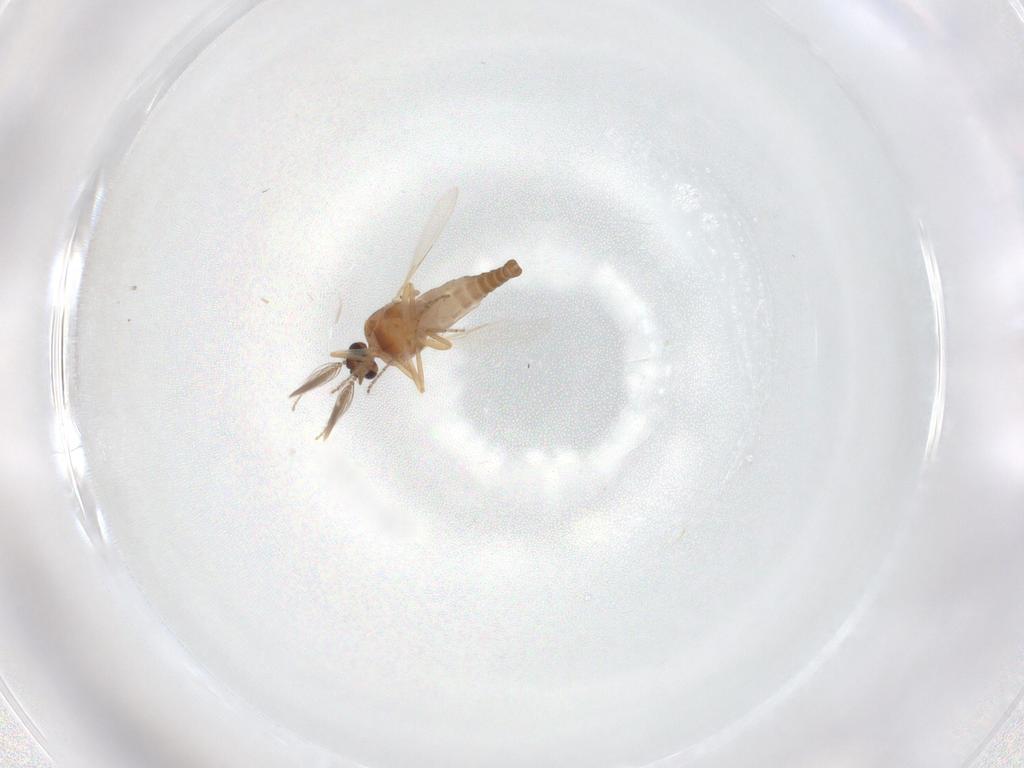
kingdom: Animalia
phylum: Arthropoda
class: Insecta
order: Diptera
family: Ceratopogonidae
